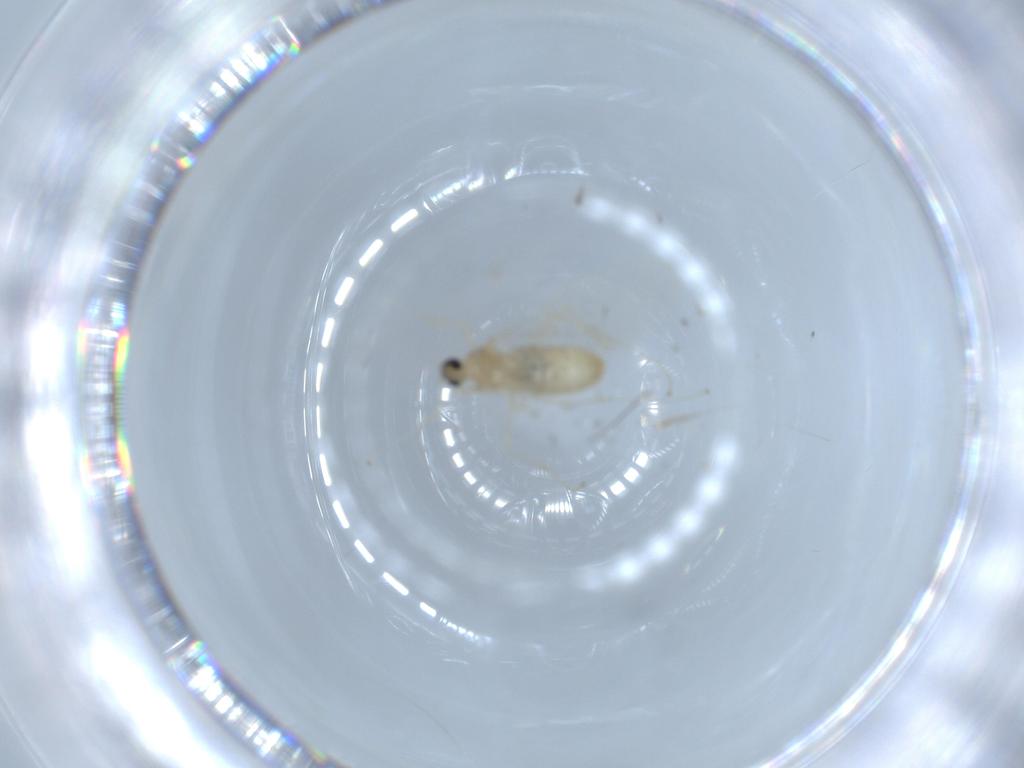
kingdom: Animalia
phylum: Arthropoda
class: Insecta
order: Diptera
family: Cecidomyiidae
